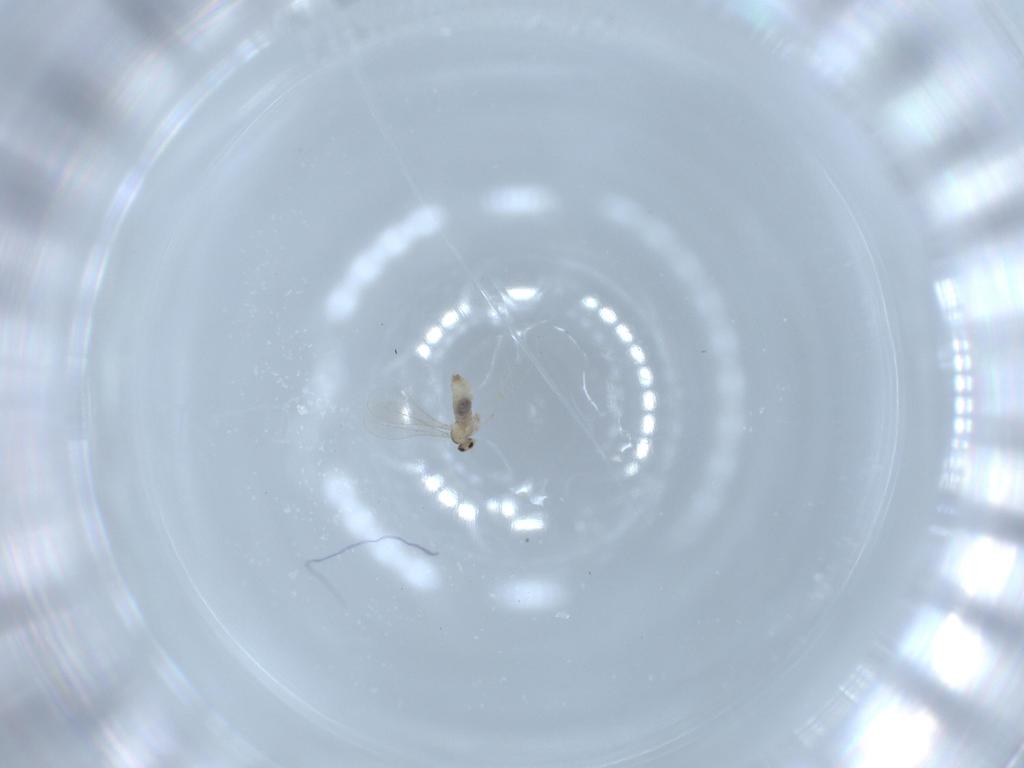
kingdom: Animalia
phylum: Arthropoda
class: Insecta
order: Diptera
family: Cecidomyiidae
